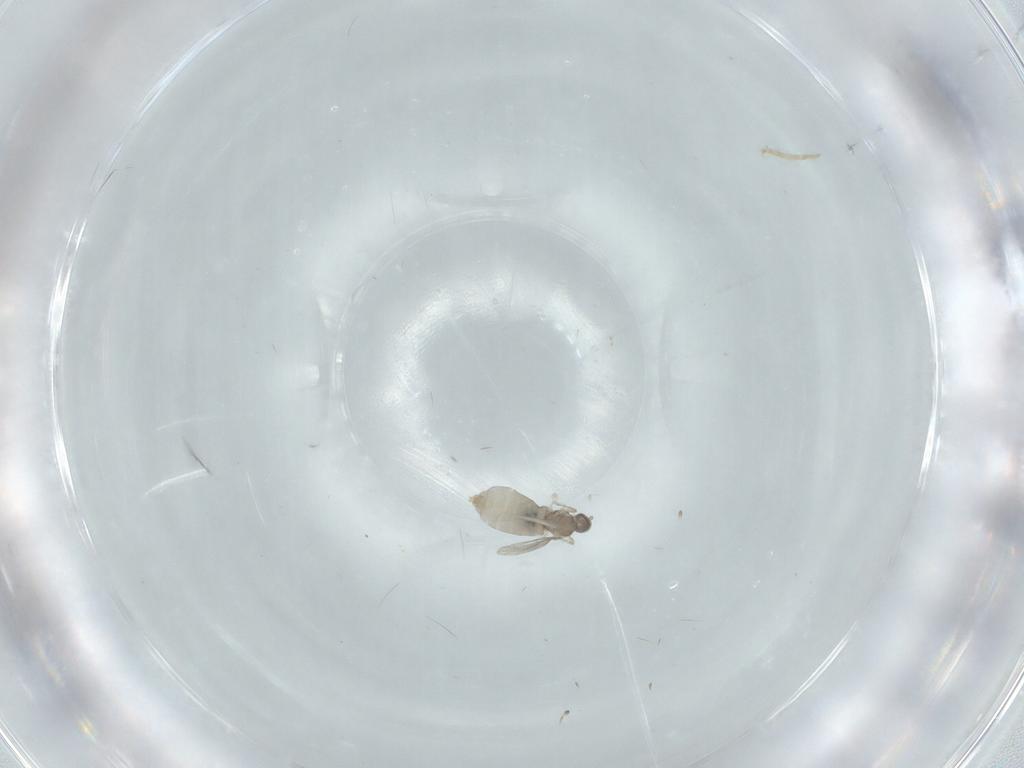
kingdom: Animalia
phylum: Arthropoda
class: Insecta
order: Diptera
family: Cecidomyiidae
